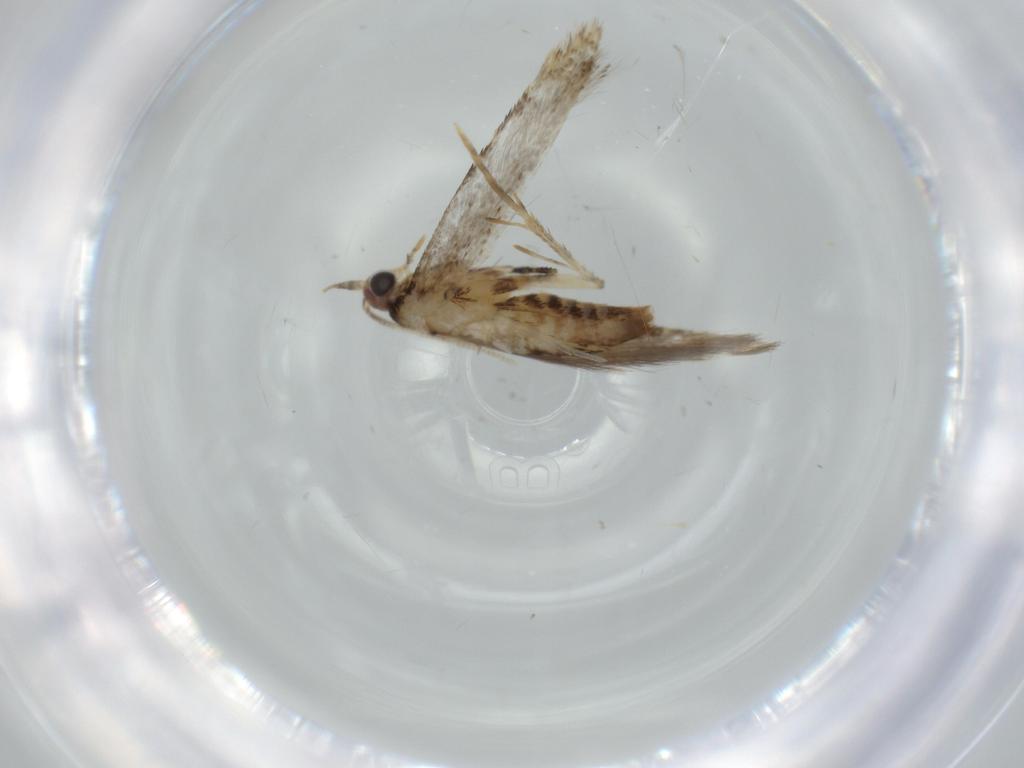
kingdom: Animalia
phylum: Arthropoda
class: Insecta
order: Lepidoptera
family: Tineidae
